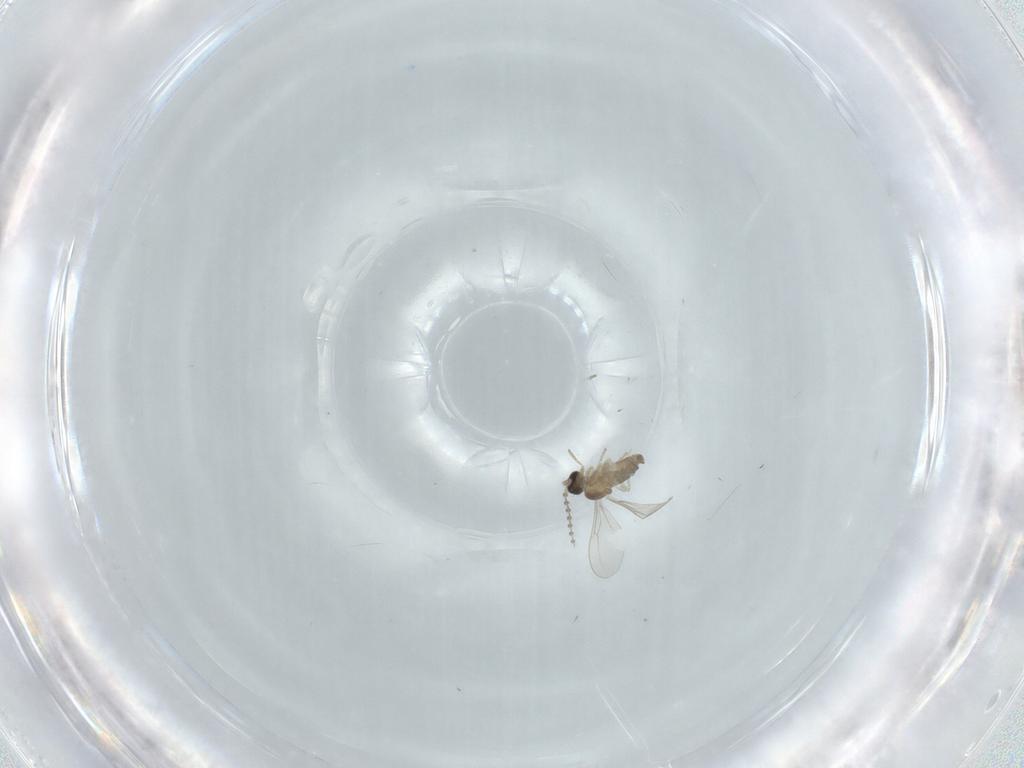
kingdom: Animalia
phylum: Arthropoda
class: Insecta
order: Diptera
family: Cecidomyiidae
